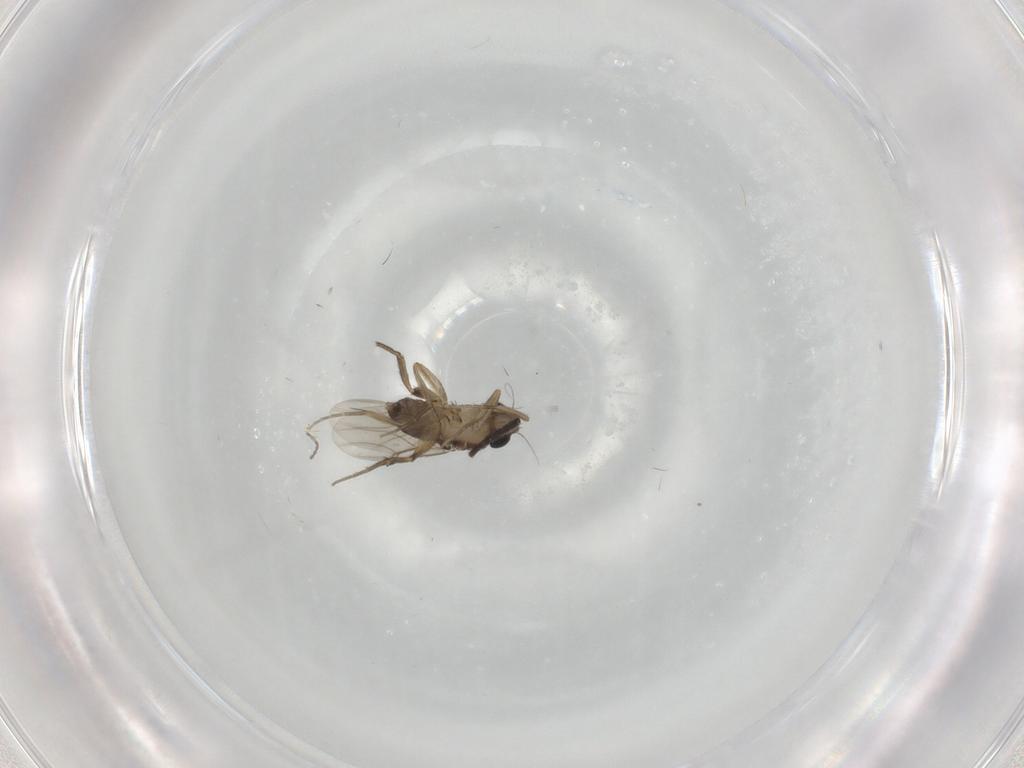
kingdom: Animalia
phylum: Arthropoda
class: Insecta
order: Diptera
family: Phoridae
